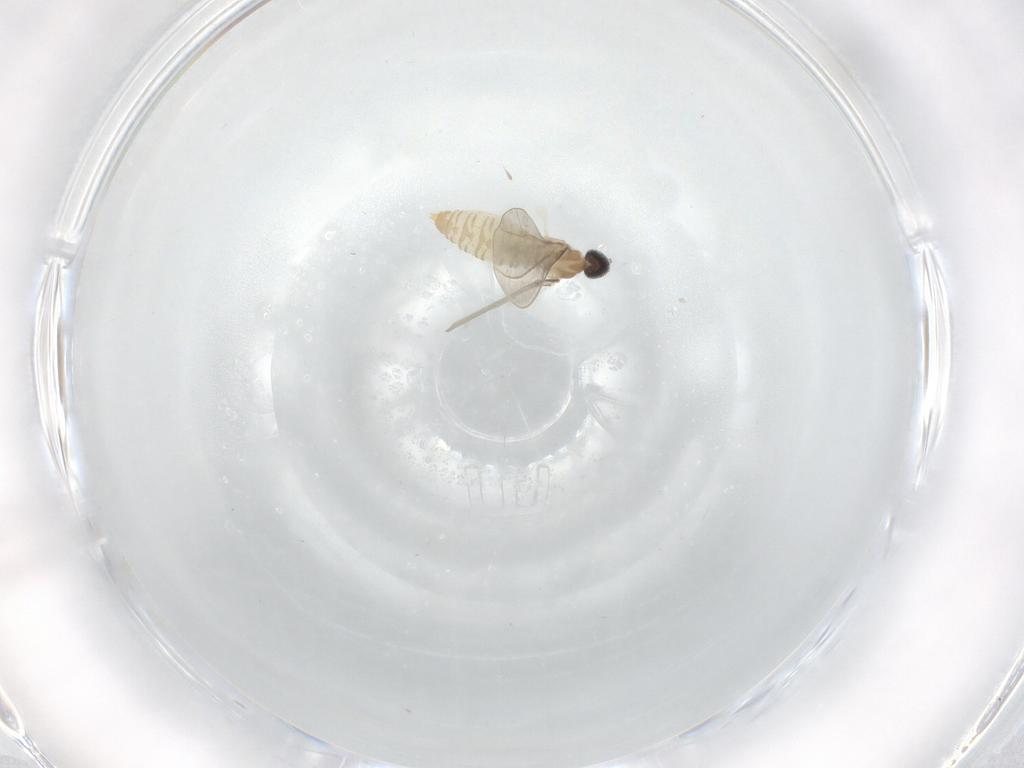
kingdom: Animalia
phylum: Arthropoda
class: Insecta
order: Diptera
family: Cecidomyiidae
